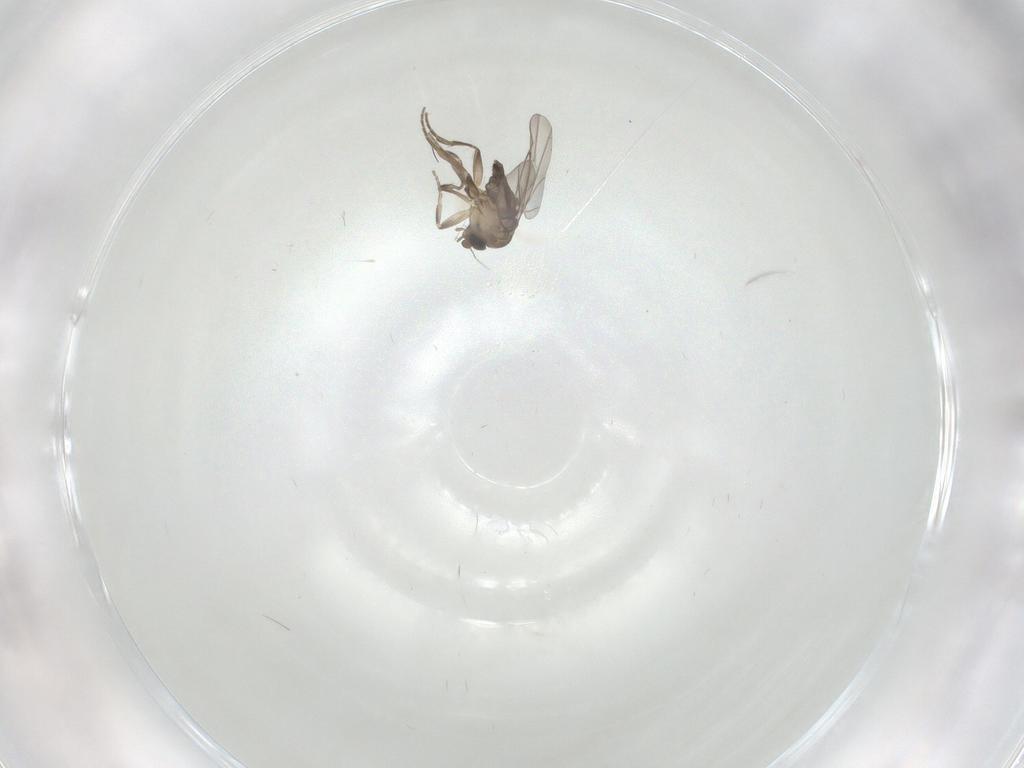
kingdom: Animalia
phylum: Arthropoda
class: Insecta
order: Diptera
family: Phoridae
